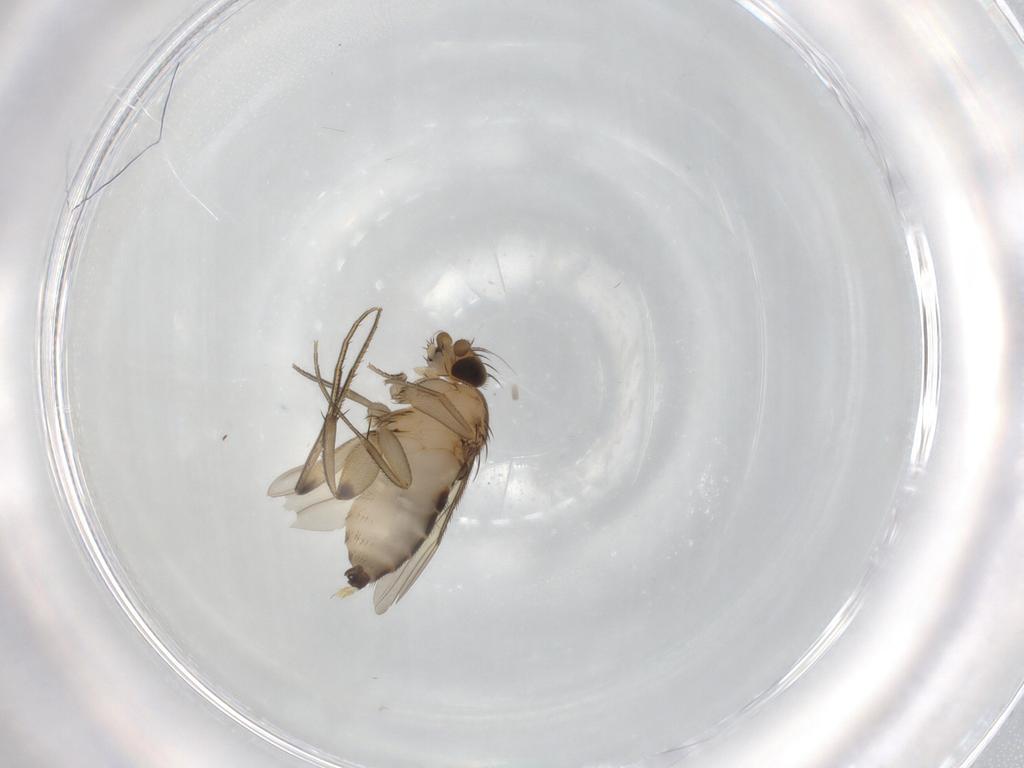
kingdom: Animalia
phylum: Arthropoda
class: Insecta
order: Diptera
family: Phoridae
